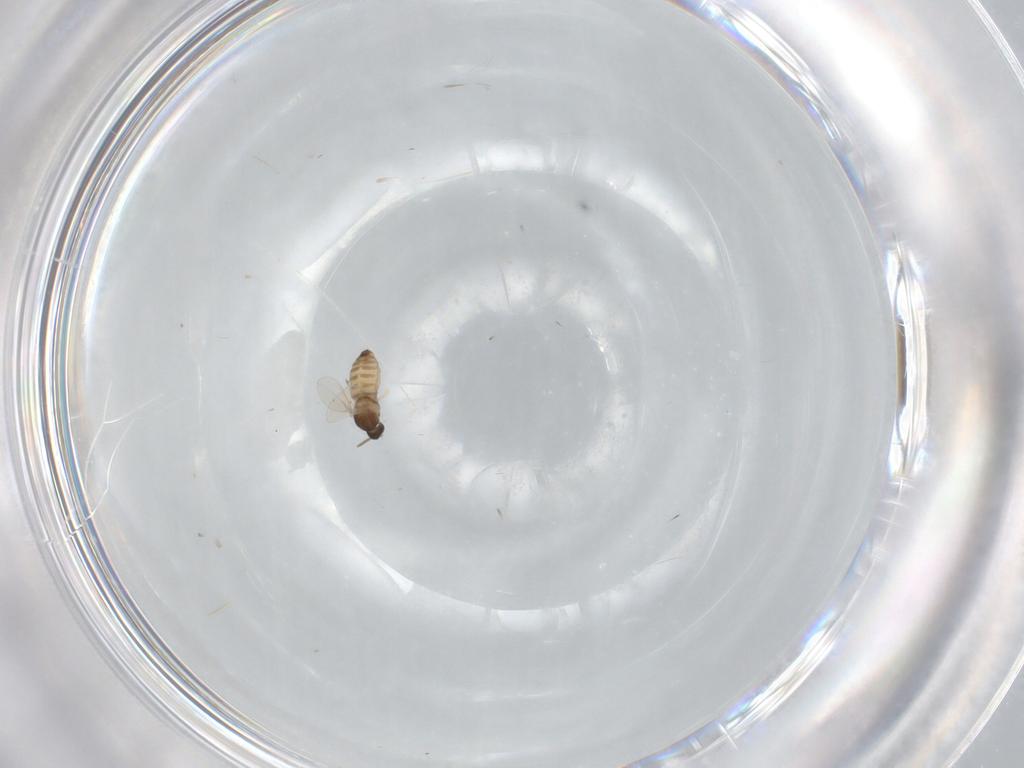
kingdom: Animalia
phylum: Arthropoda
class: Insecta
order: Diptera
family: Cecidomyiidae
